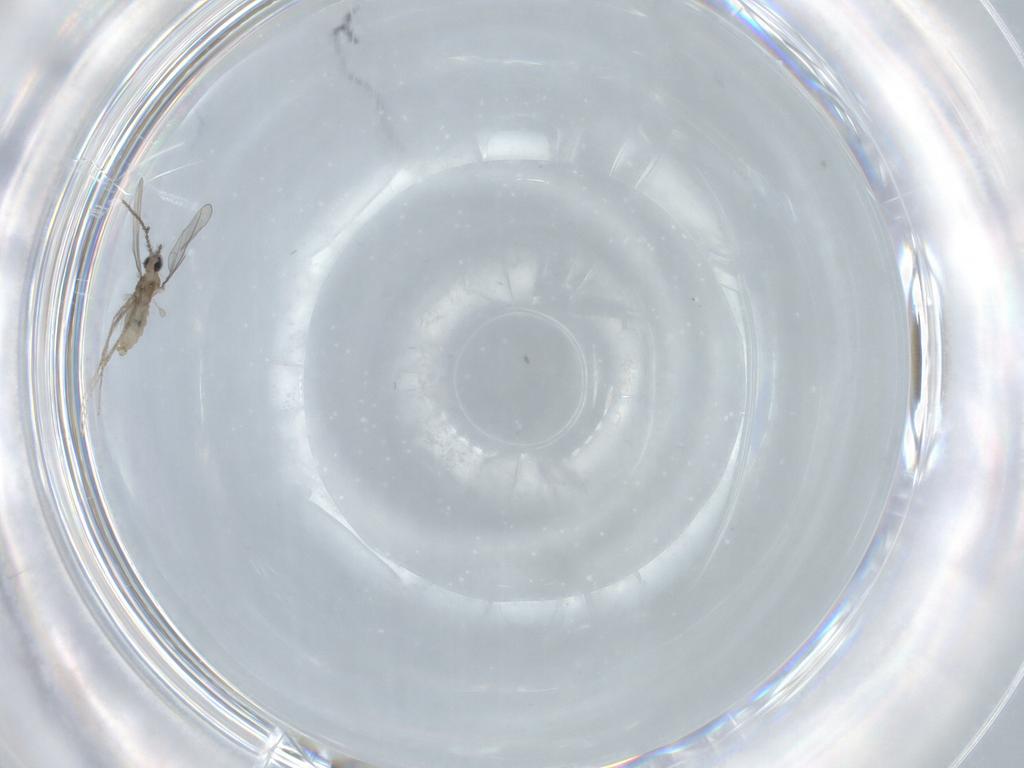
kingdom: Animalia
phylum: Arthropoda
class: Insecta
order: Diptera
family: Cecidomyiidae
